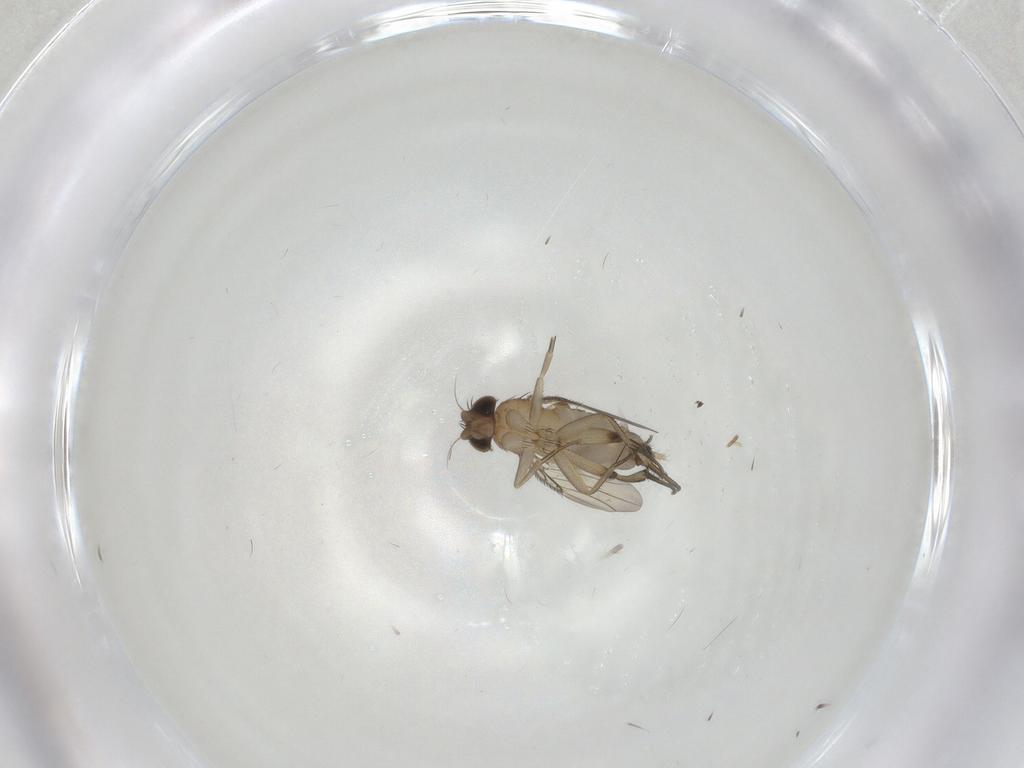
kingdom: Animalia
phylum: Arthropoda
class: Insecta
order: Diptera
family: Phoridae
